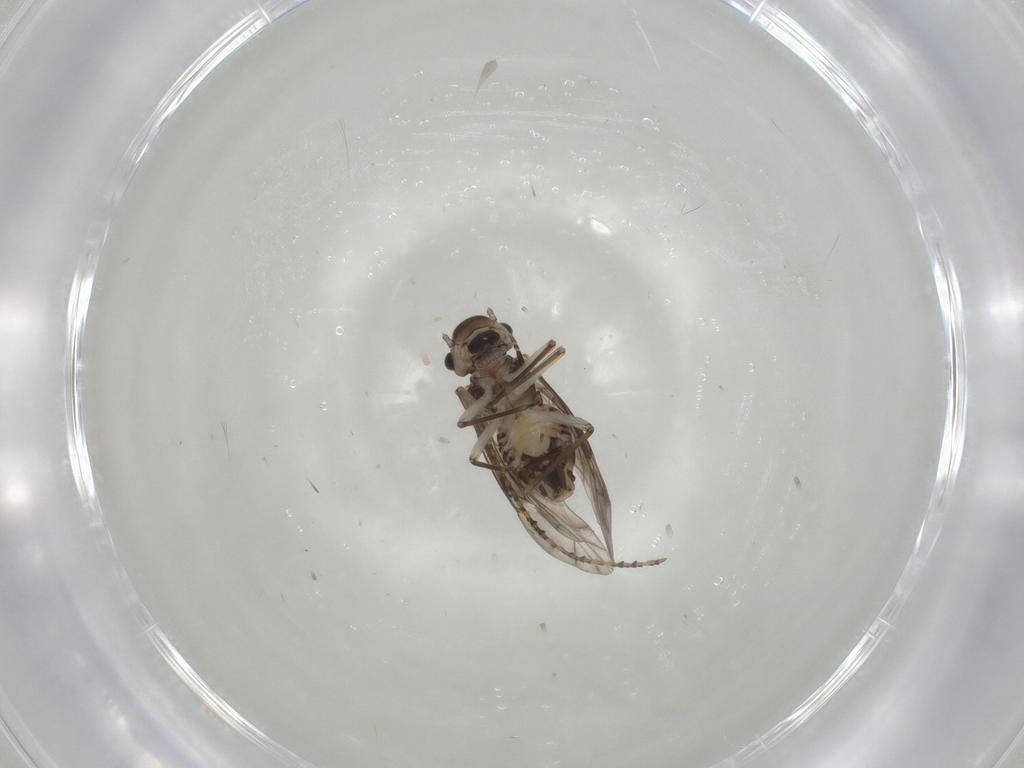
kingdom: Animalia
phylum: Arthropoda
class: Insecta
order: Psocodea
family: Peripsocidae
